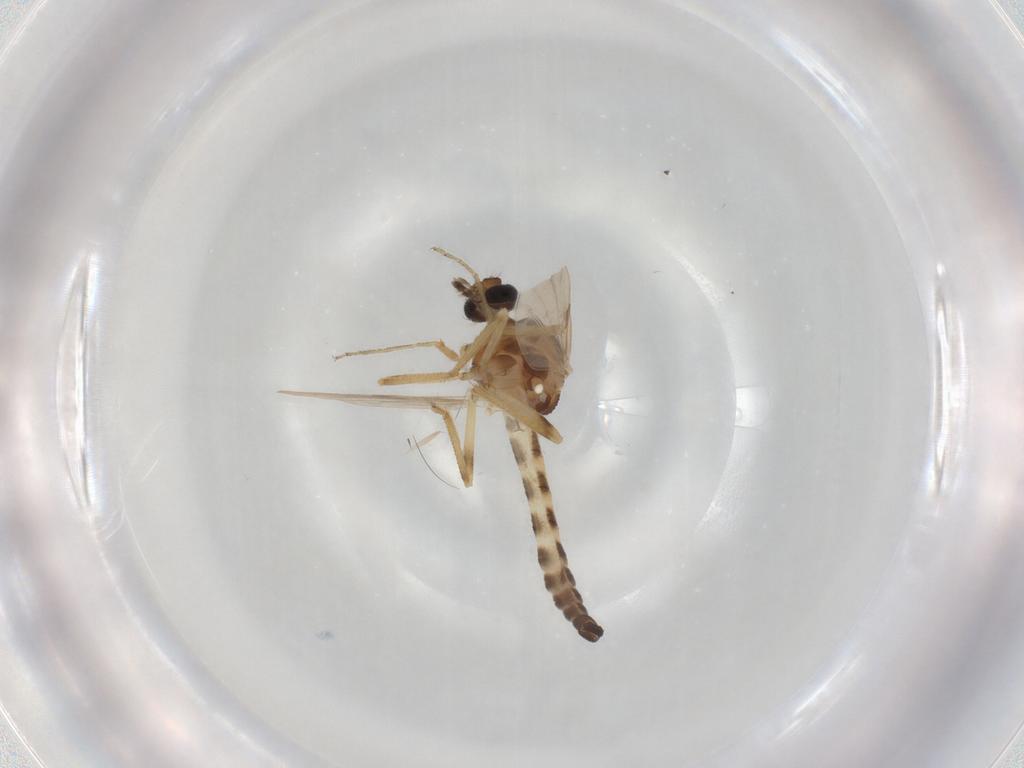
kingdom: Animalia
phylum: Arthropoda
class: Insecta
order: Diptera
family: Ceratopogonidae
